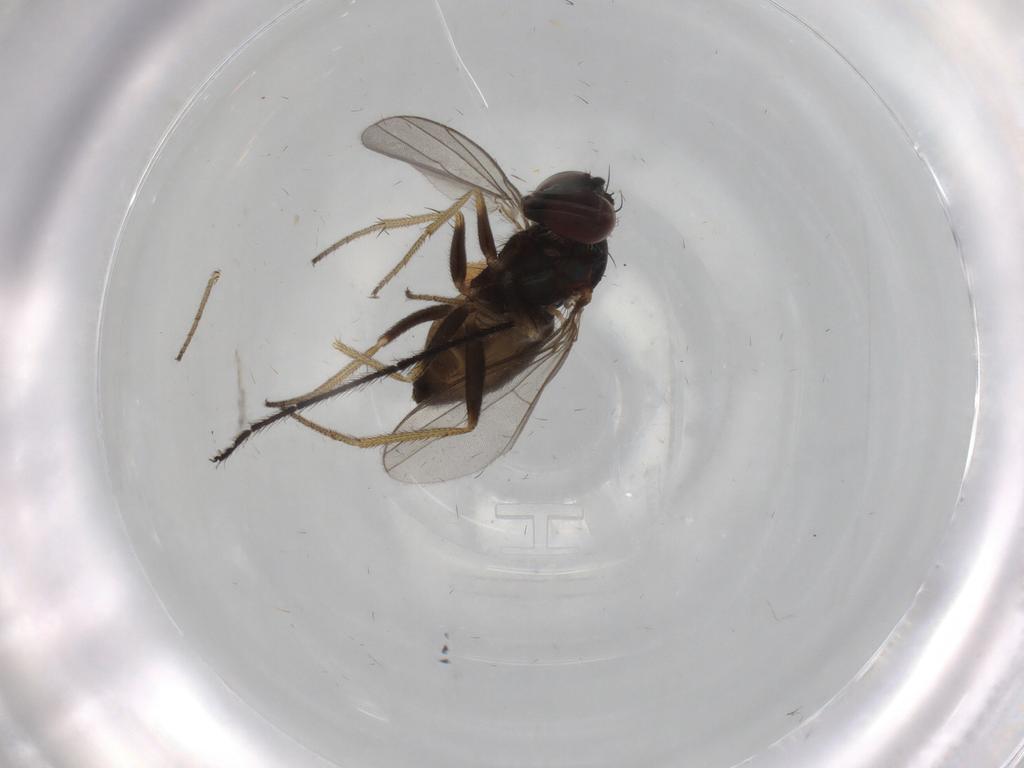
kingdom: Animalia
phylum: Arthropoda
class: Insecta
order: Diptera
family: Limoniidae
